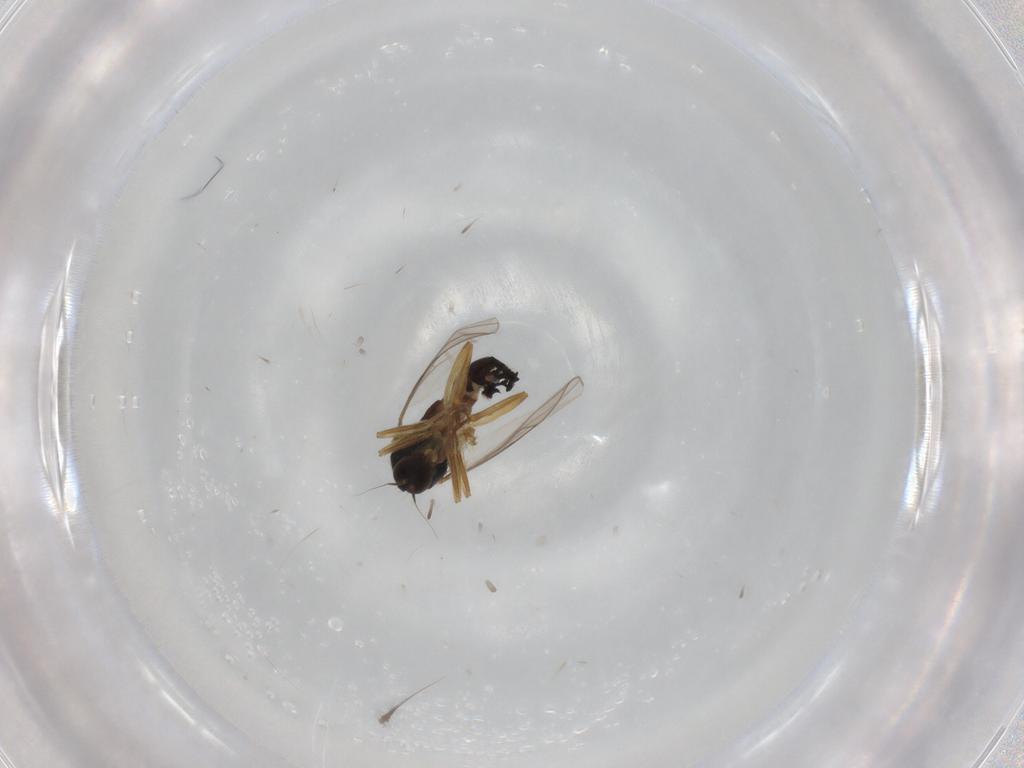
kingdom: Animalia
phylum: Arthropoda
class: Insecta
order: Diptera
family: Hybotidae
